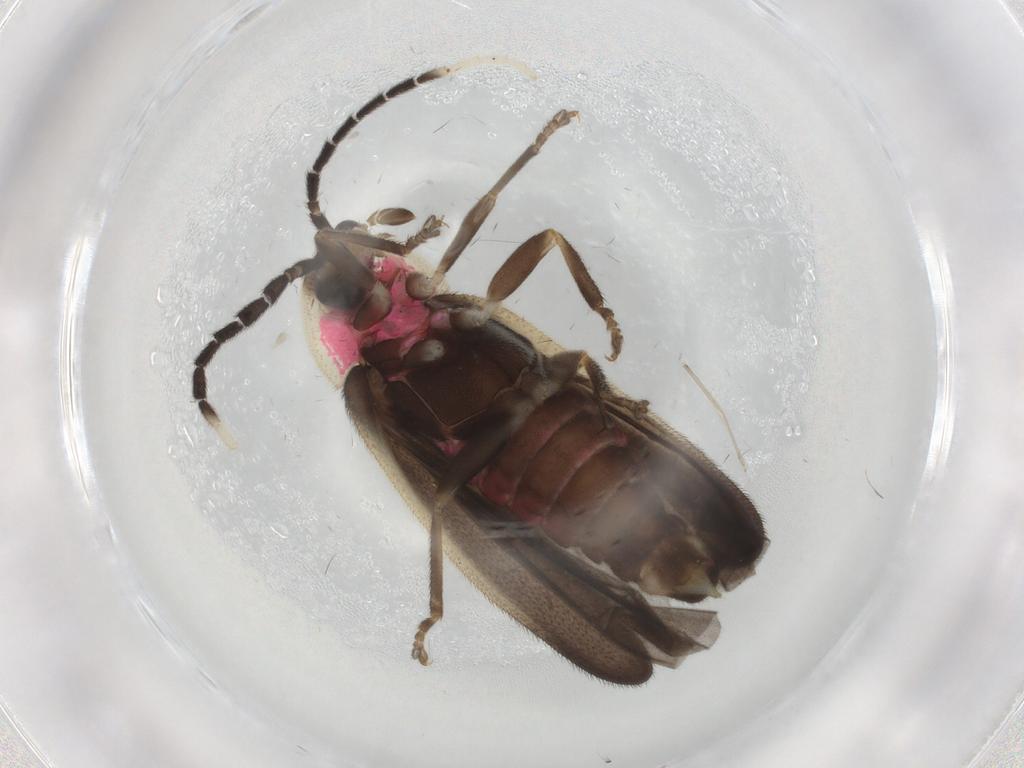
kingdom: Animalia
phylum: Arthropoda
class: Insecta
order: Coleoptera
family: Lampyridae
